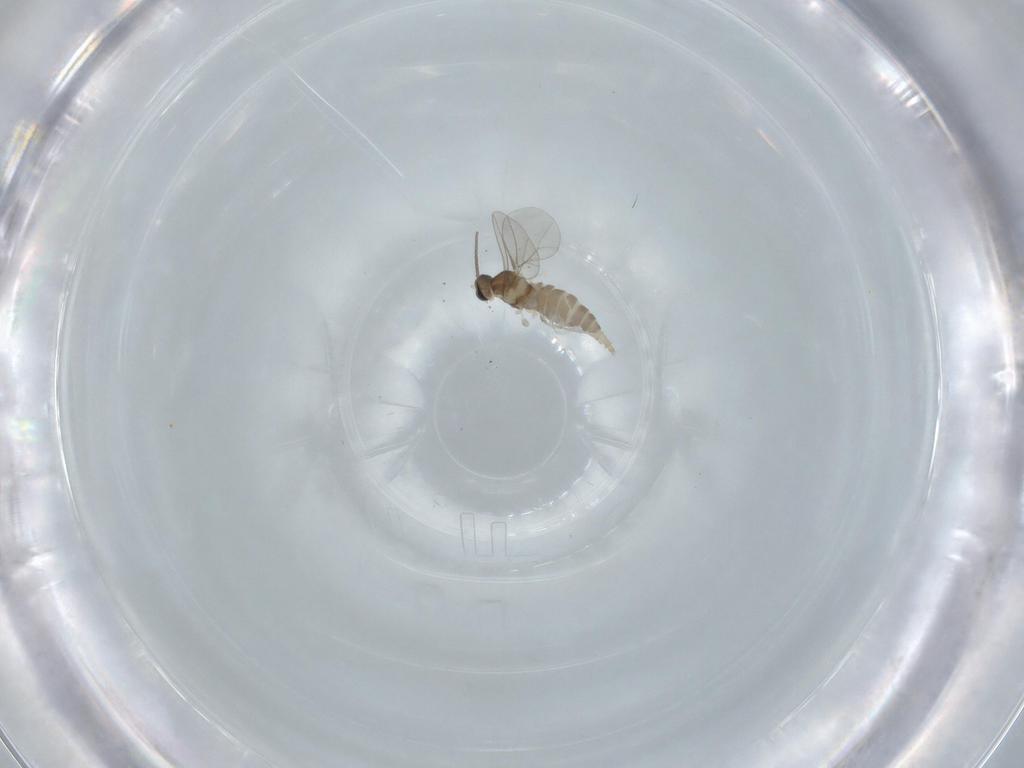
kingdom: Animalia
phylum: Arthropoda
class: Insecta
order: Diptera
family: Cecidomyiidae
